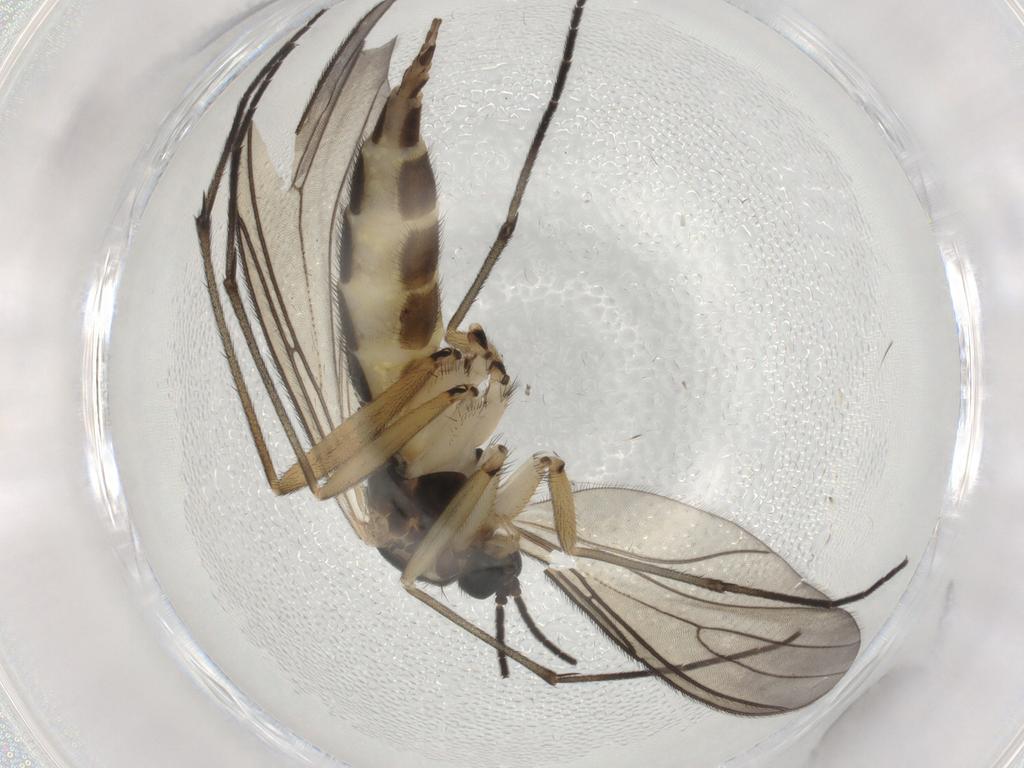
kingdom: Animalia
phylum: Arthropoda
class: Insecta
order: Diptera
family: Sciaridae
